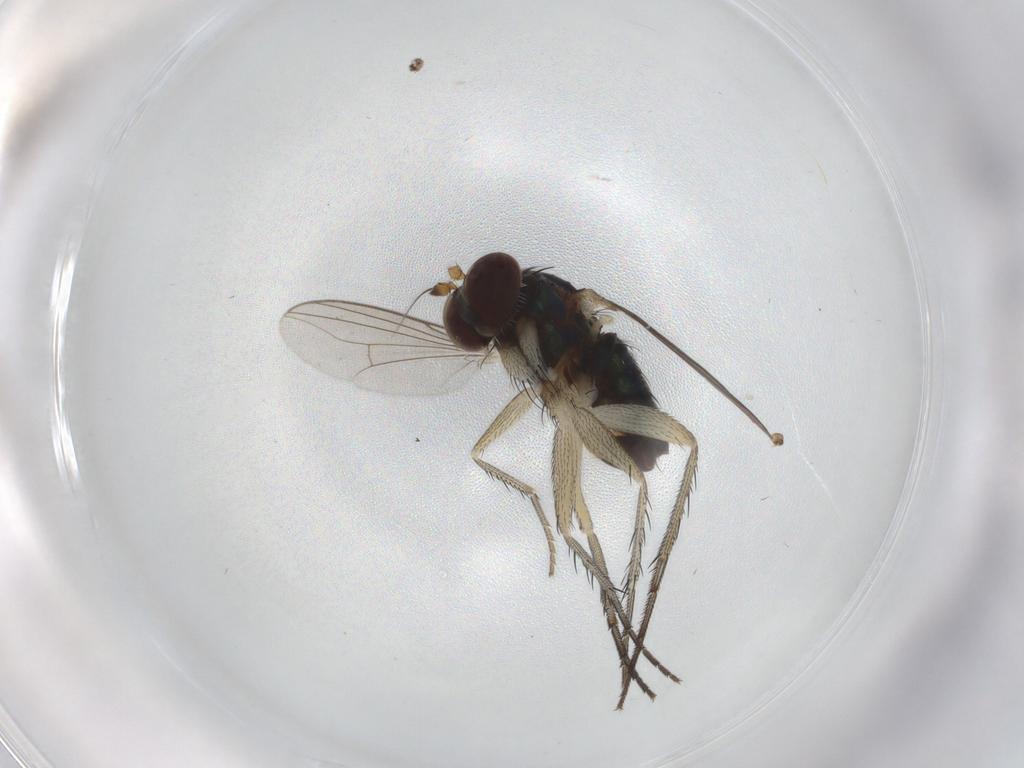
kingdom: Animalia
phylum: Arthropoda
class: Insecta
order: Diptera
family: Dolichopodidae
